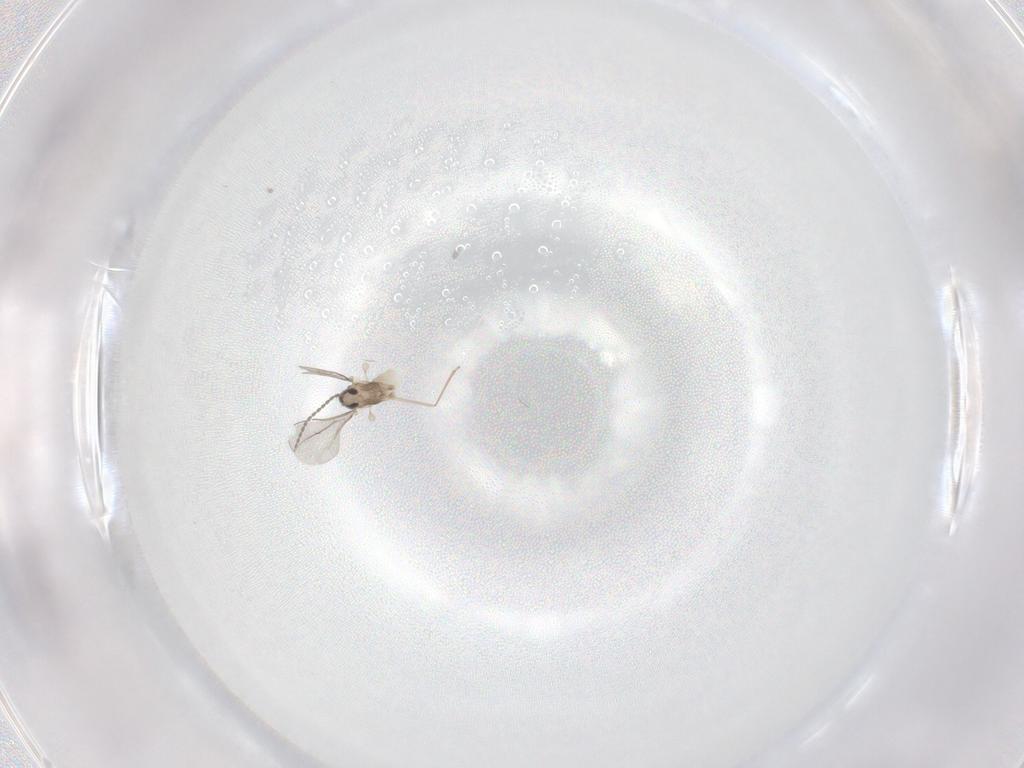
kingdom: Animalia
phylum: Arthropoda
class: Insecta
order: Diptera
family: Cecidomyiidae
